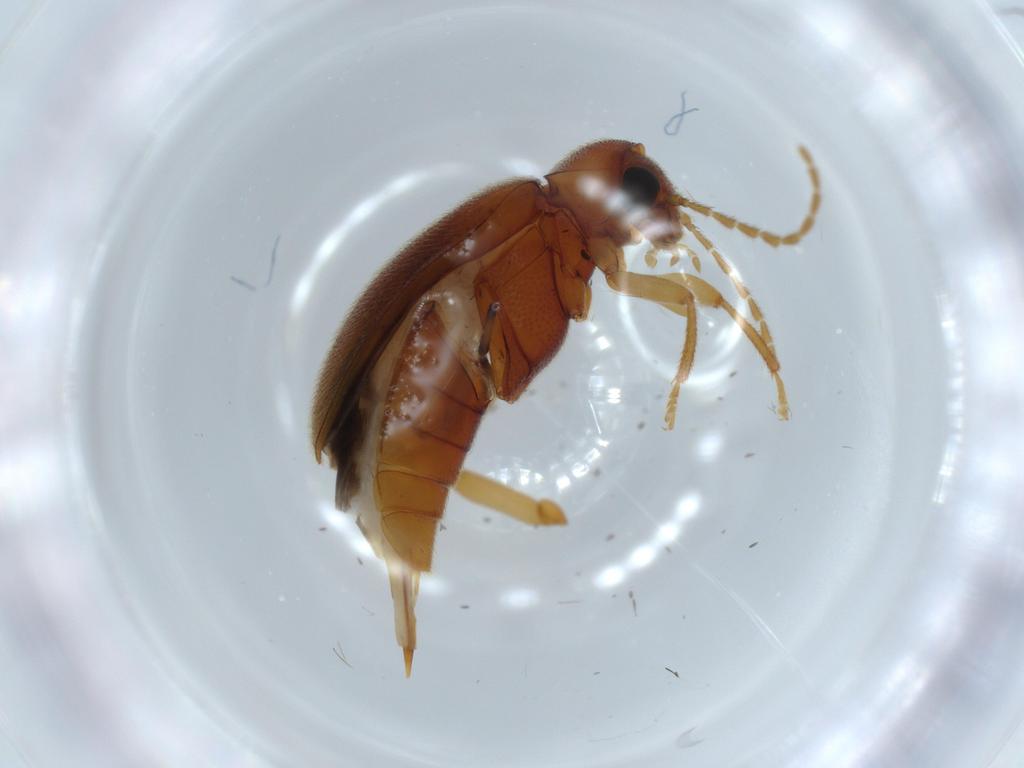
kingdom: Animalia
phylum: Arthropoda
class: Insecta
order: Coleoptera
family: Ptilodactylidae
